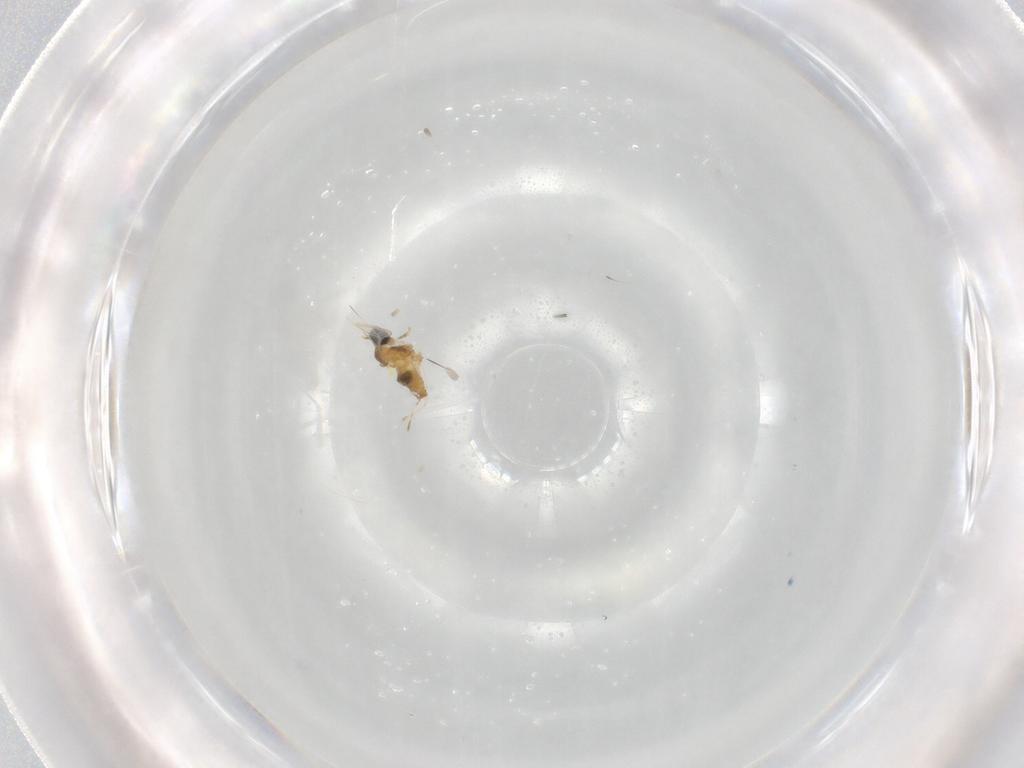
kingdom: Animalia
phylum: Arthropoda
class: Insecta
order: Diptera
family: Cecidomyiidae
